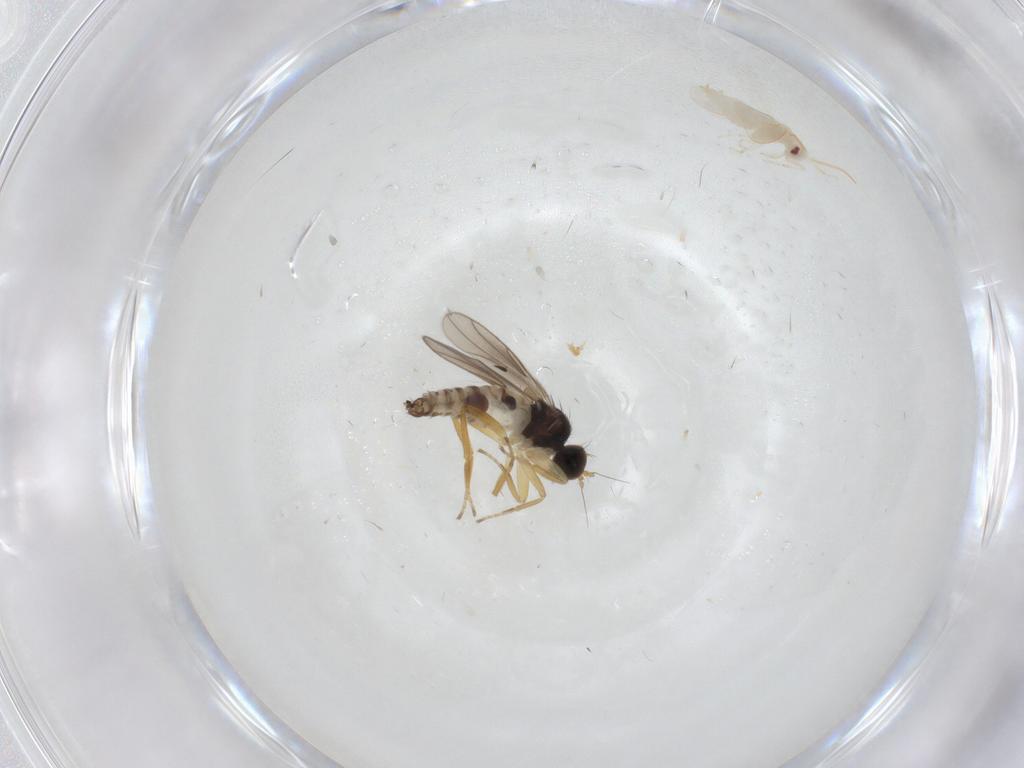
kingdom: Animalia
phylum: Arthropoda
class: Insecta
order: Diptera
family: Hybotidae
